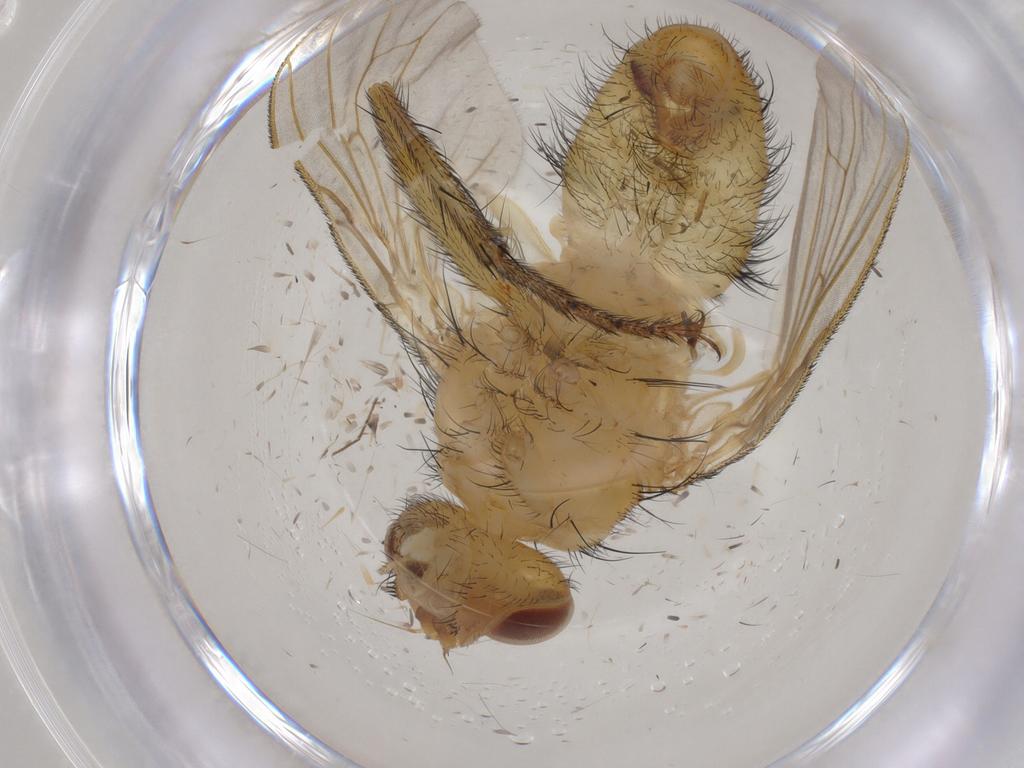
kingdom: Animalia
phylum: Arthropoda
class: Insecta
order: Diptera
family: Tachinidae
